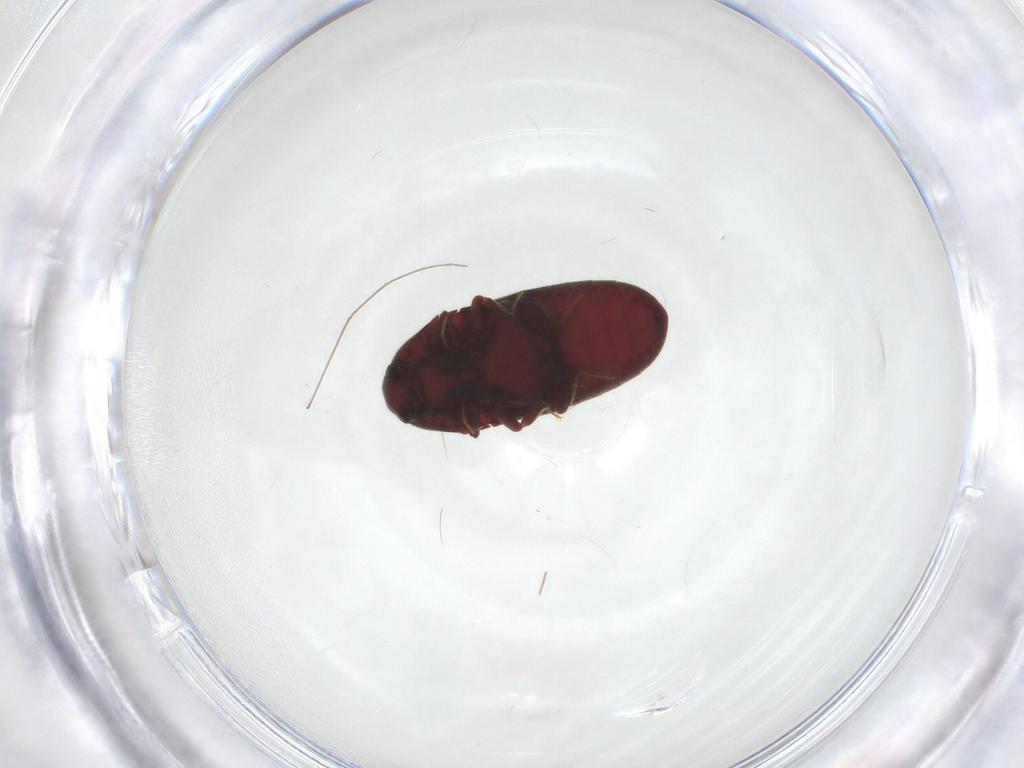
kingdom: Animalia
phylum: Arthropoda
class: Insecta
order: Coleoptera
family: Throscidae
